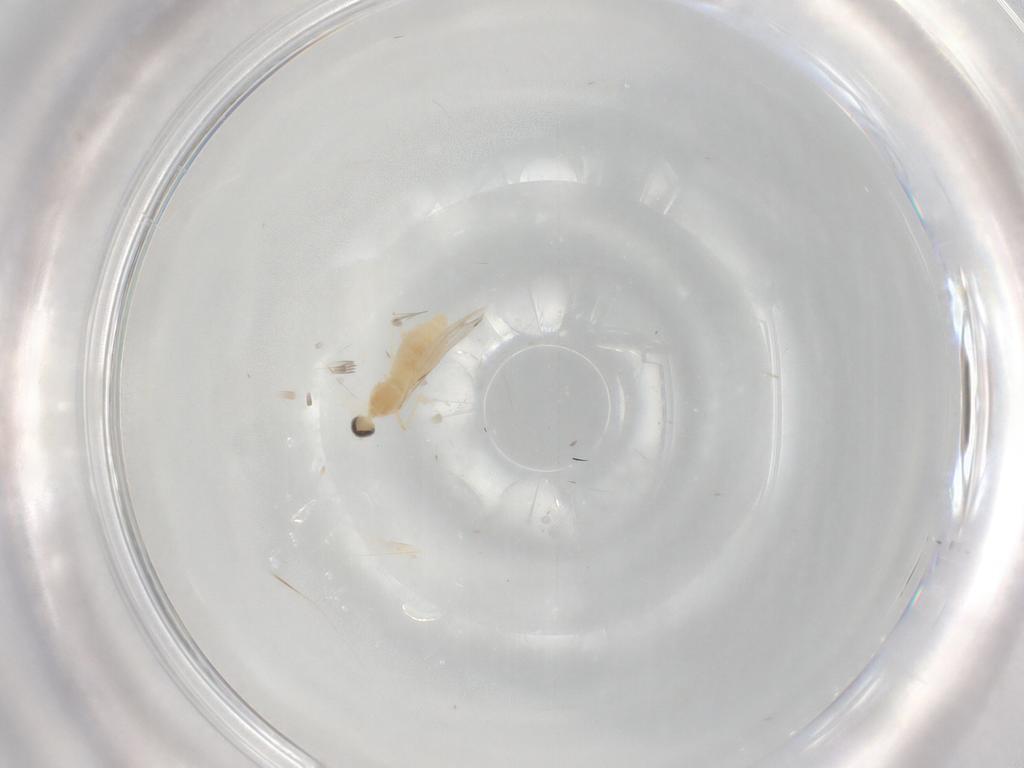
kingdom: Animalia
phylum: Arthropoda
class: Insecta
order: Diptera
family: Cecidomyiidae
